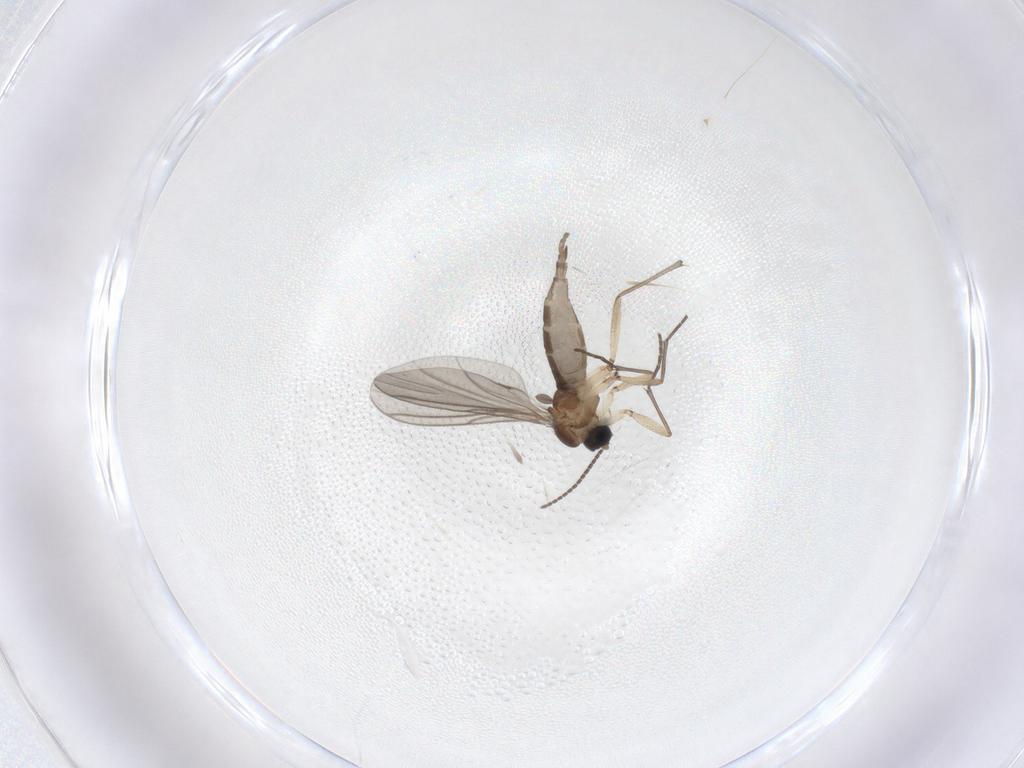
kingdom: Animalia
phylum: Arthropoda
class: Insecta
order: Diptera
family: Sciaridae
